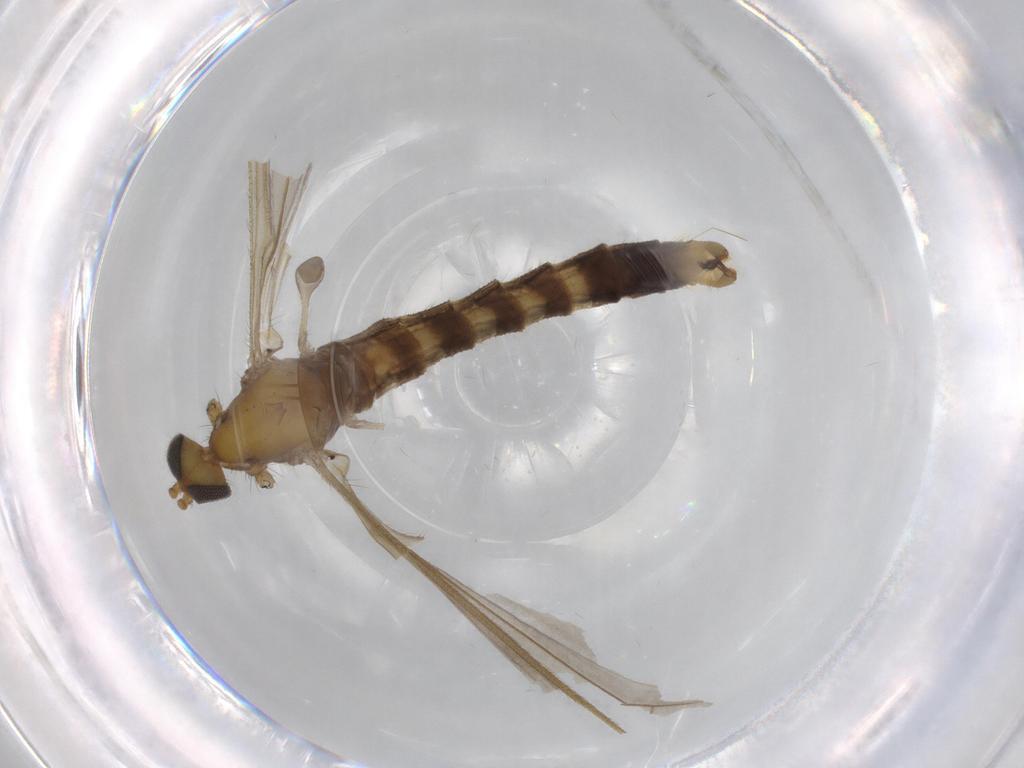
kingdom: Animalia
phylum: Arthropoda
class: Insecta
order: Diptera
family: Cecidomyiidae
